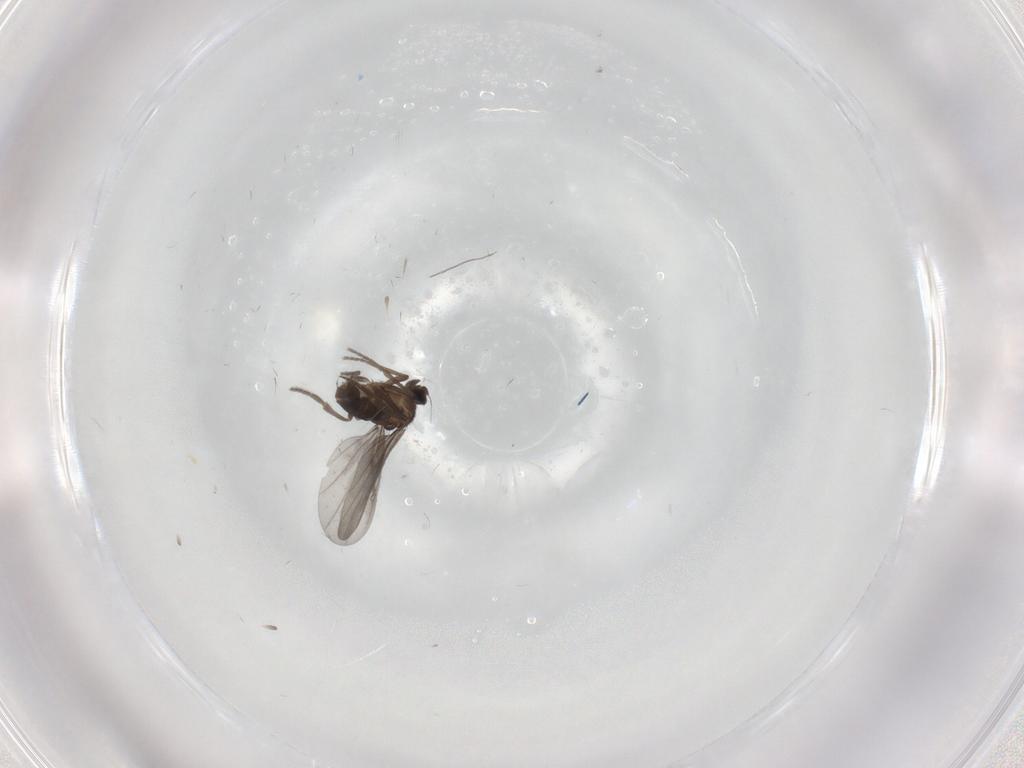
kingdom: Animalia
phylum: Arthropoda
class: Insecta
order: Diptera
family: Phoridae
